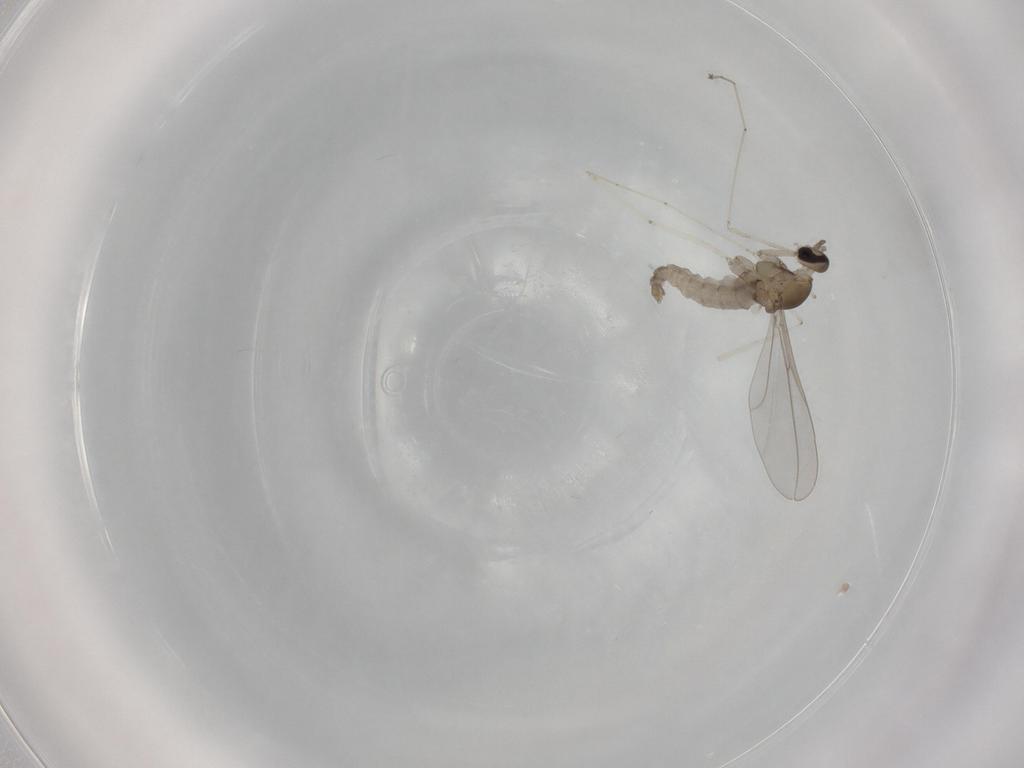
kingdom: Animalia
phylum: Arthropoda
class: Insecta
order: Diptera
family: Cecidomyiidae
